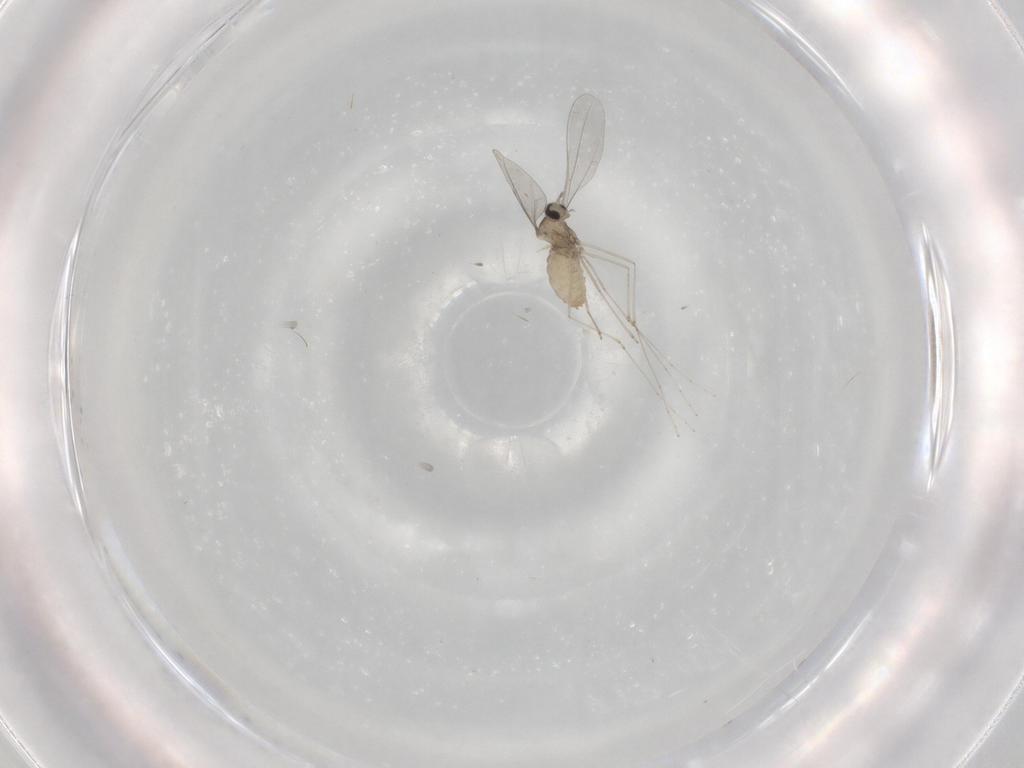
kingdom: Animalia
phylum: Arthropoda
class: Insecta
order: Diptera
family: Cecidomyiidae
